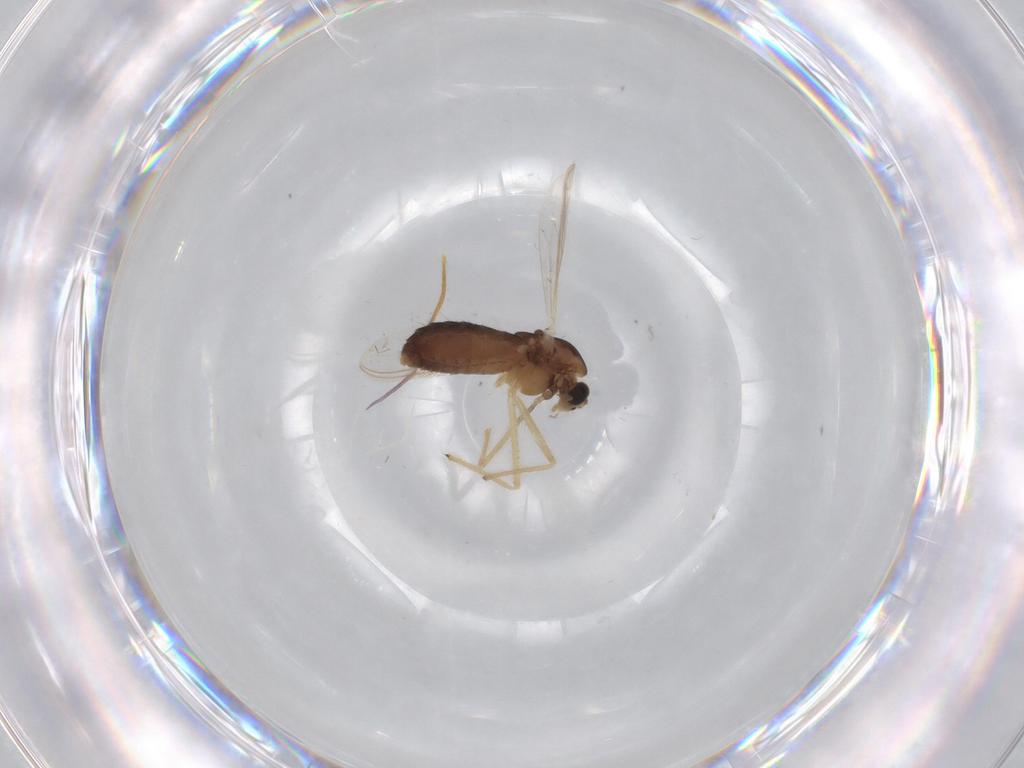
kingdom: Animalia
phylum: Arthropoda
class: Insecta
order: Diptera
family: Chironomidae
